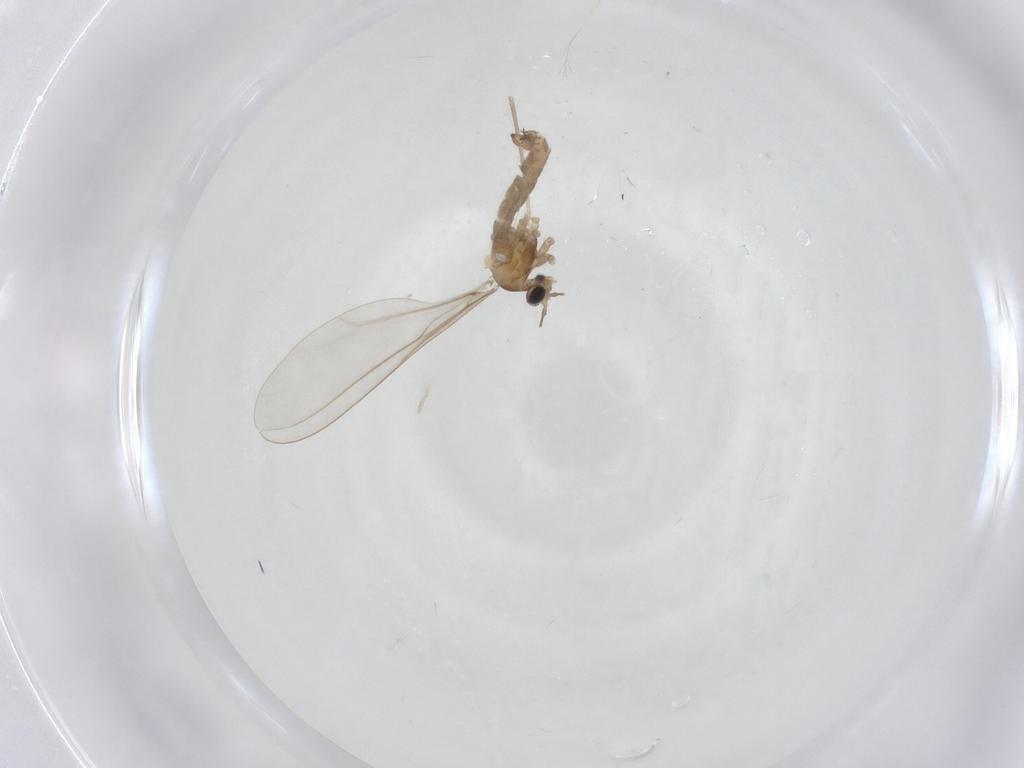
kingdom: Animalia
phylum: Arthropoda
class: Insecta
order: Diptera
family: Cecidomyiidae
